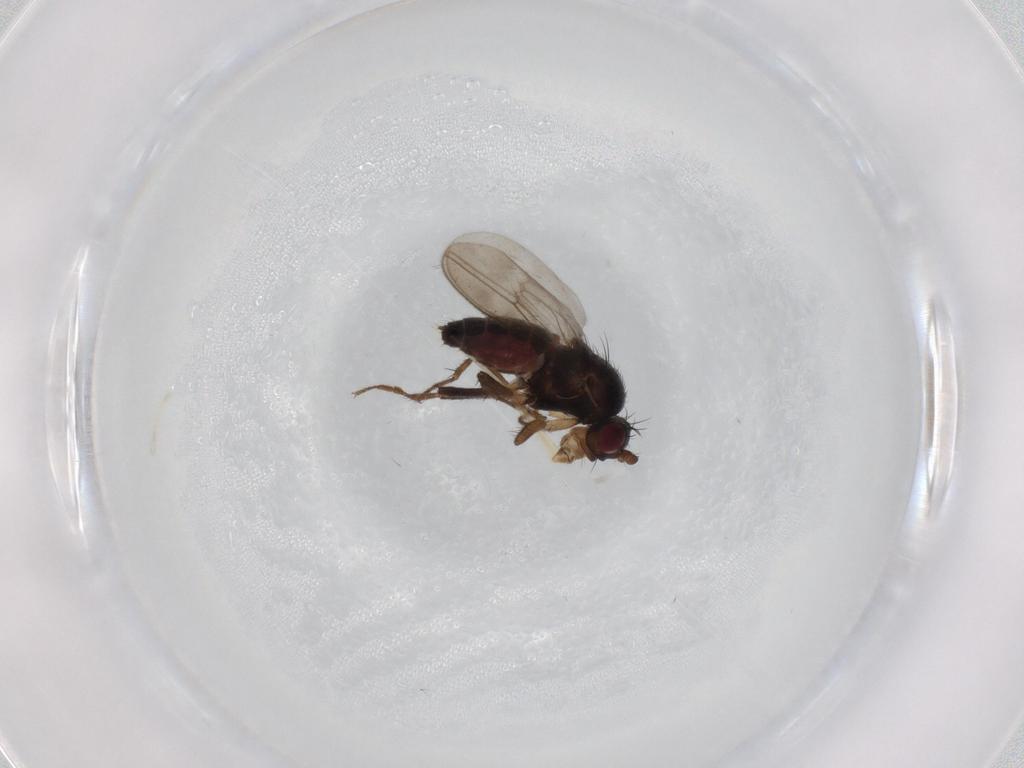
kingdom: Animalia
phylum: Arthropoda
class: Insecta
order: Diptera
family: Sphaeroceridae
